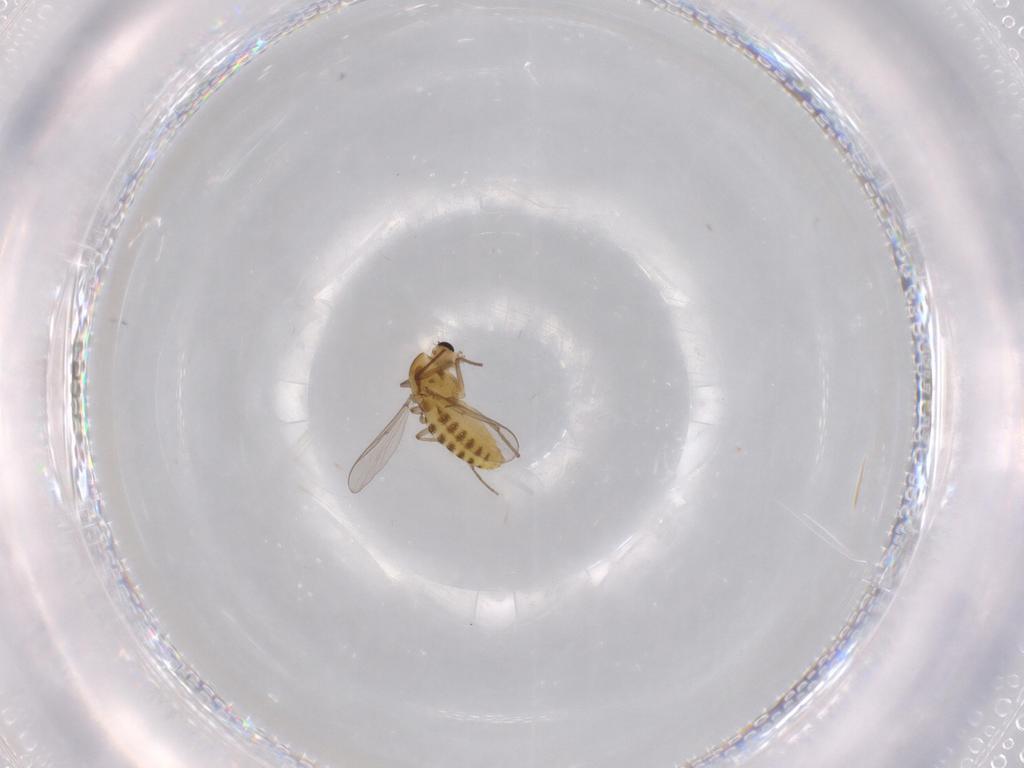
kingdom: Animalia
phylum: Arthropoda
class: Insecta
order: Diptera
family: Chironomidae
